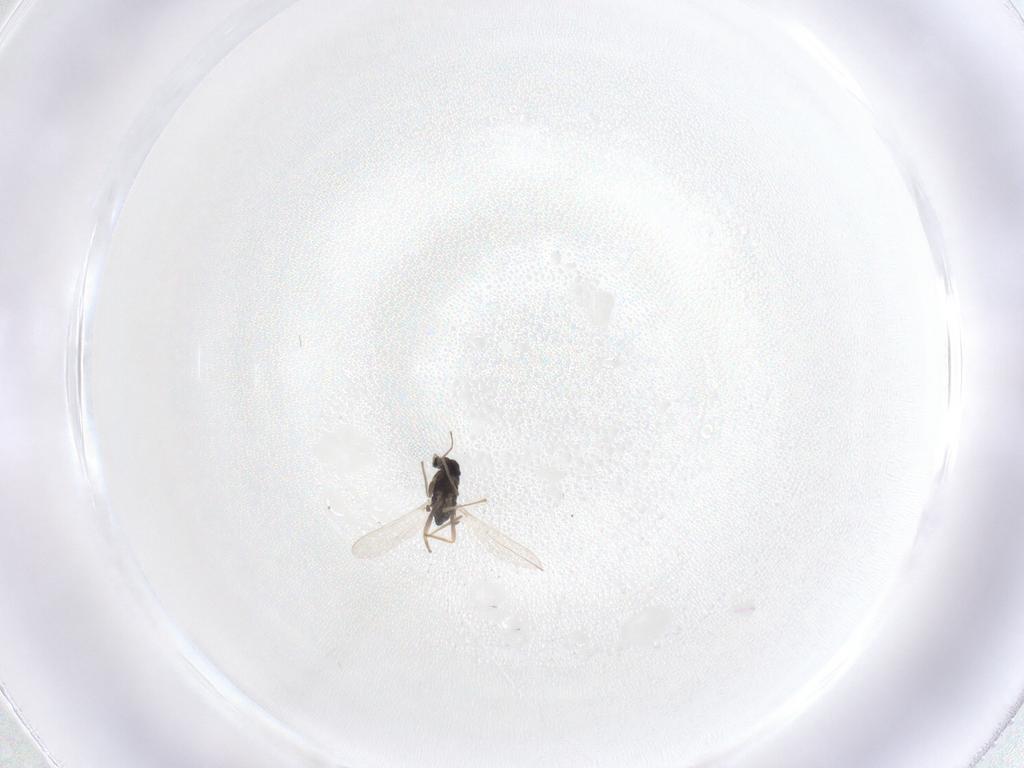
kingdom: Animalia
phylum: Arthropoda
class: Insecta
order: Diptera
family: Chironomidae
